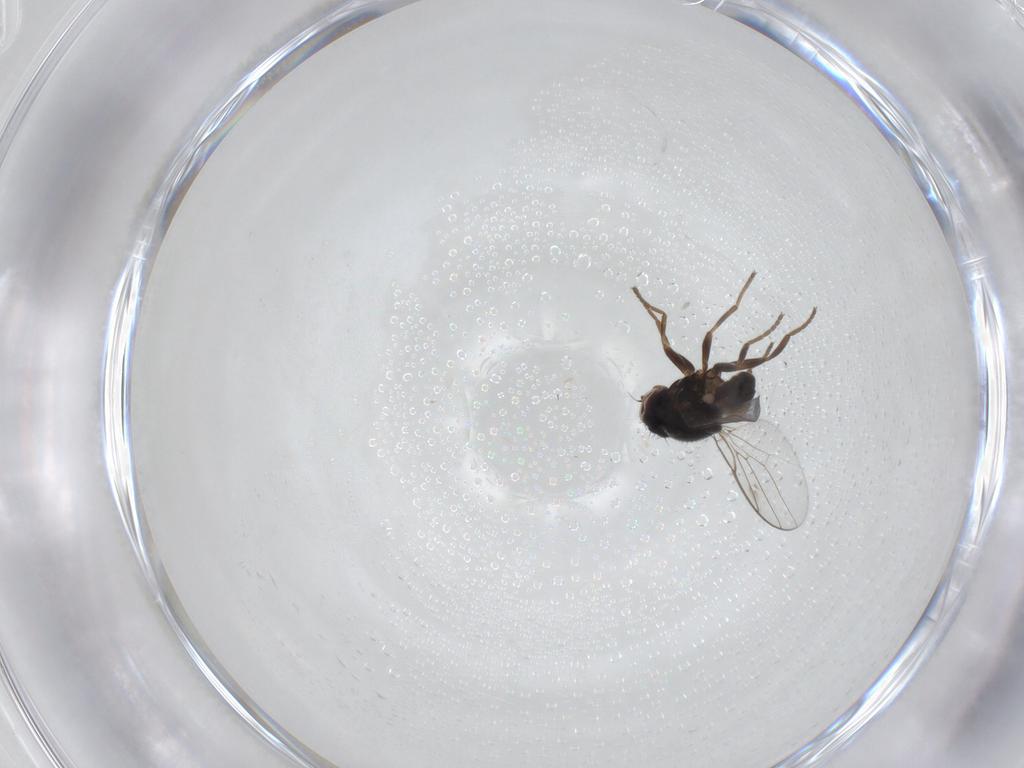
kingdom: Animalia
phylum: Arthropoda
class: Insecta
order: Diptera
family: Chloropidae
